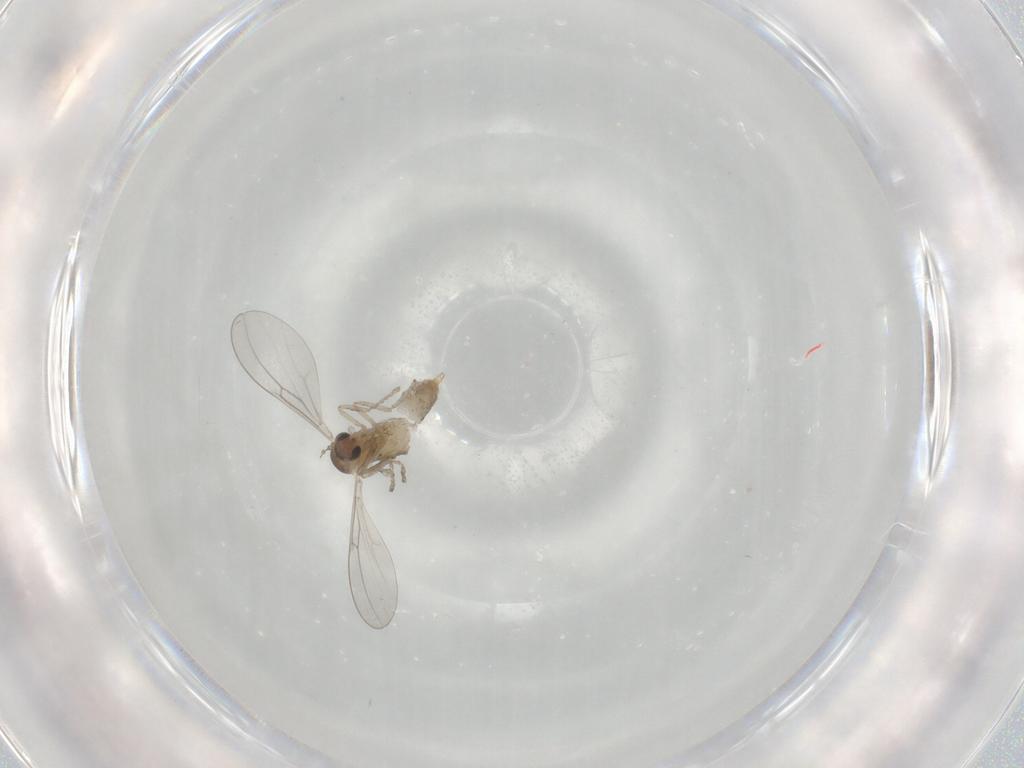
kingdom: Animalia
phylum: Arthropoda
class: Insecta
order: Diptera
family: Cecidomyiidae
